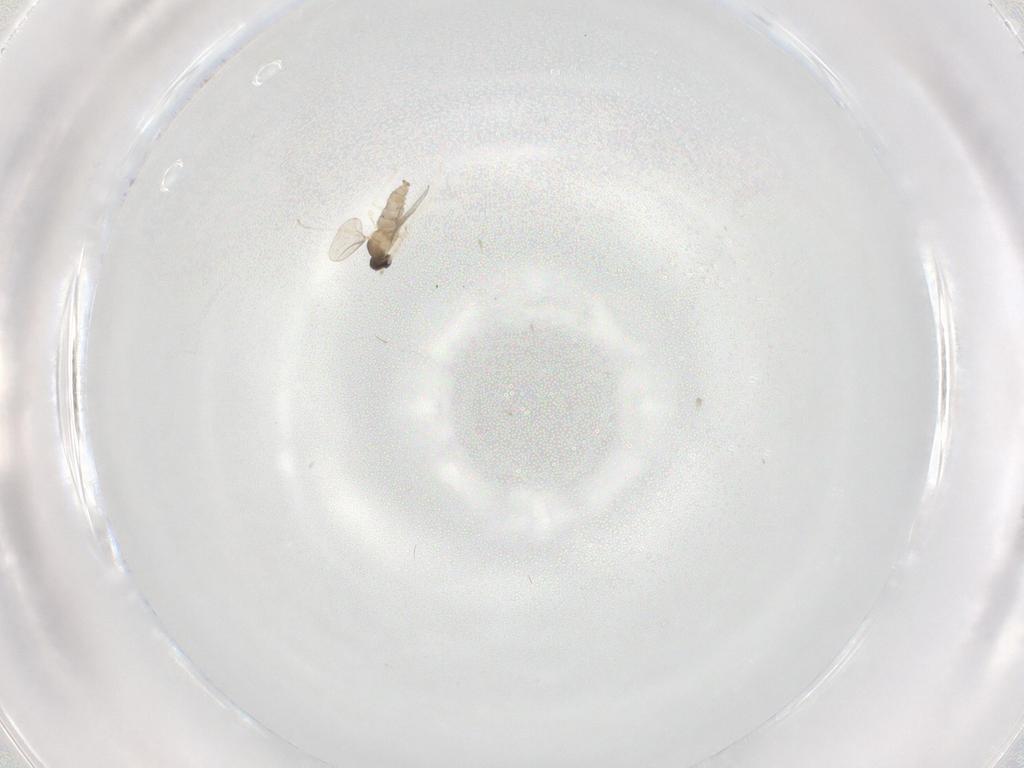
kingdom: Animalia
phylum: Arthropoda
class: Insecta
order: Diptera
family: Cecidomyiidae
